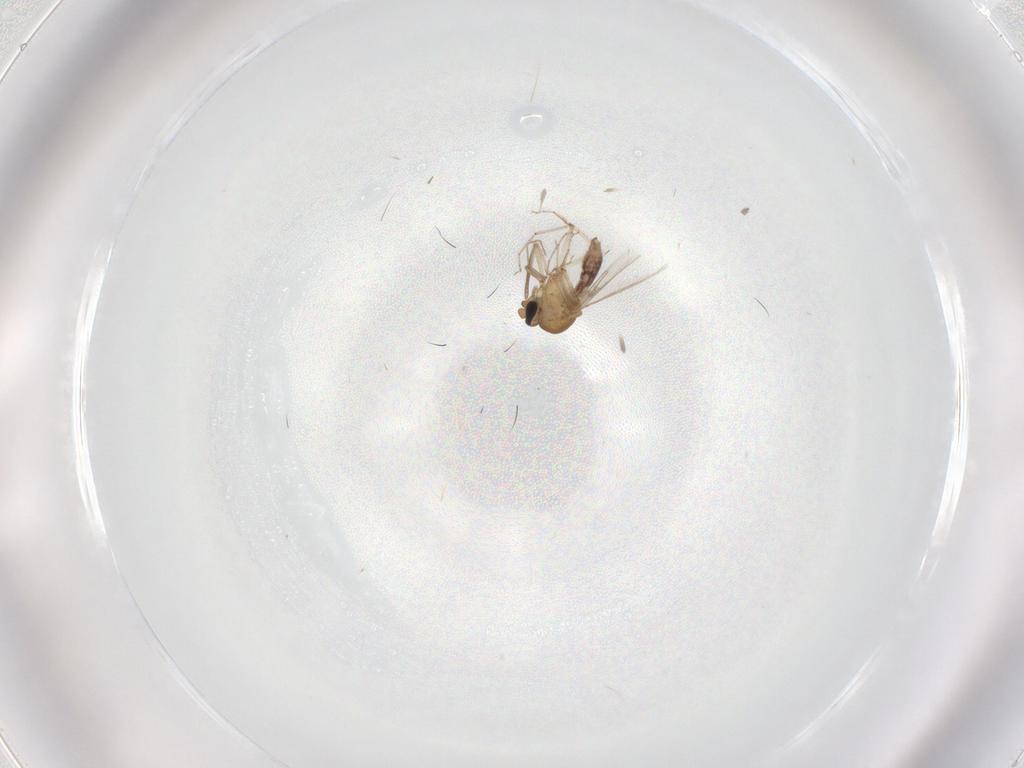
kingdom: Animalia
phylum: Arthropoda
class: Insecta
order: Diptera
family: Ceratopogonidae
